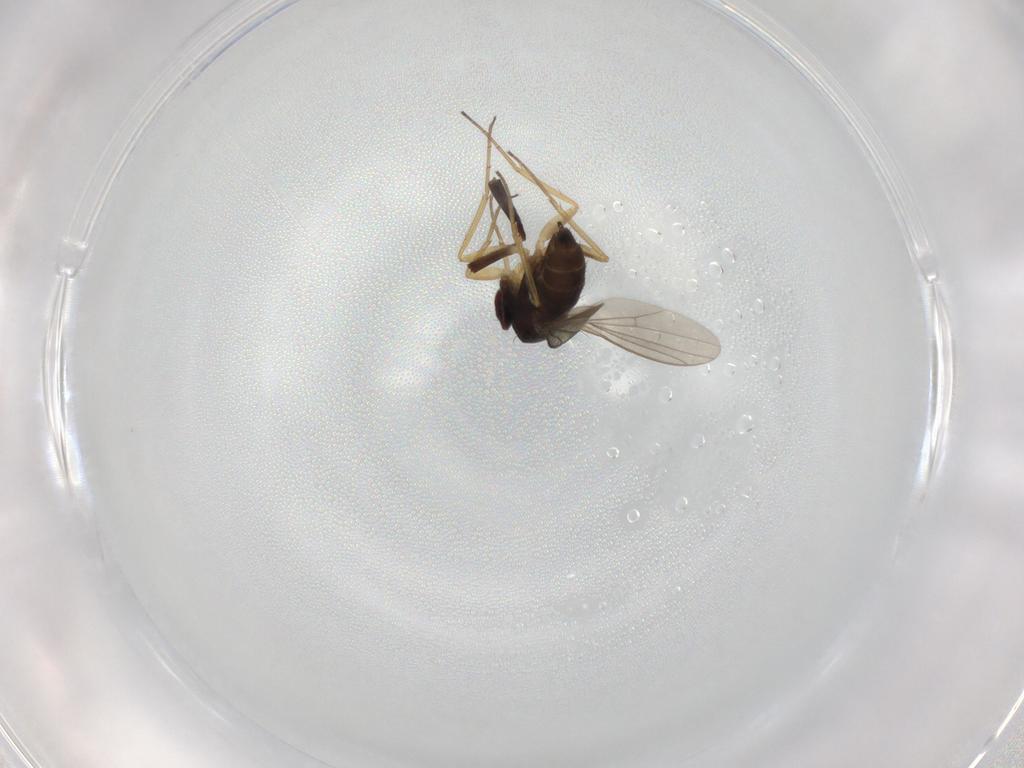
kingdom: Animalia
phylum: Arthropoda
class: Insecta
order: Diptera
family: Dolichopodidae
